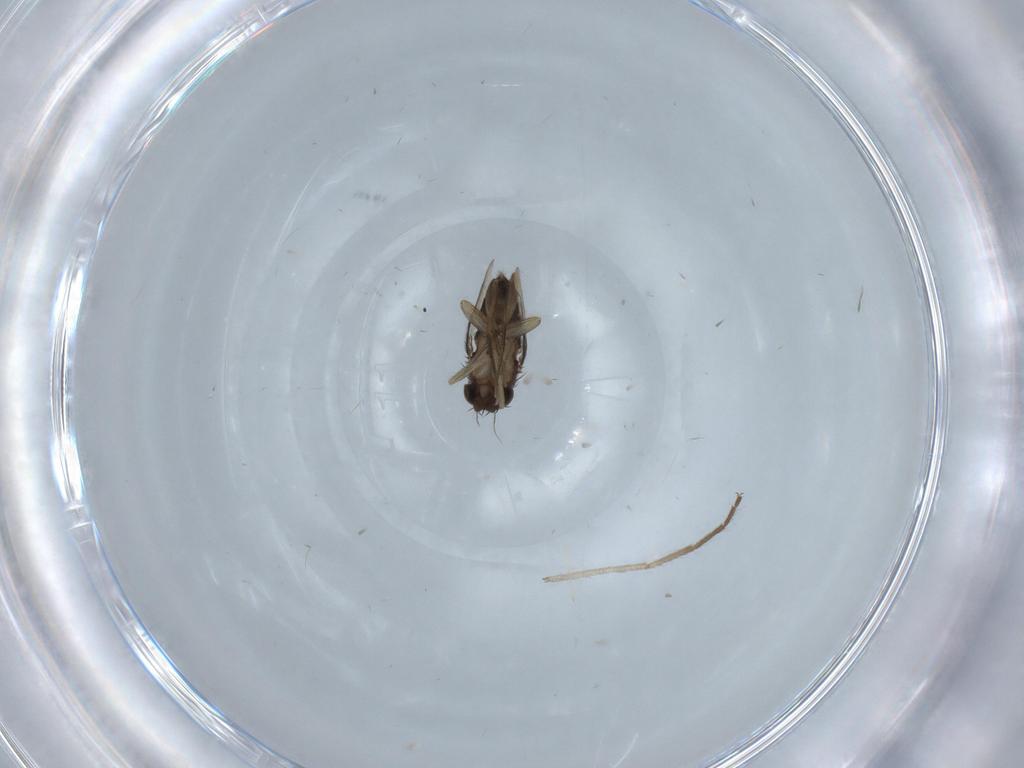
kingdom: Animalia
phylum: Arthropoda
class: Insecta
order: Diptera
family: Phoridae
